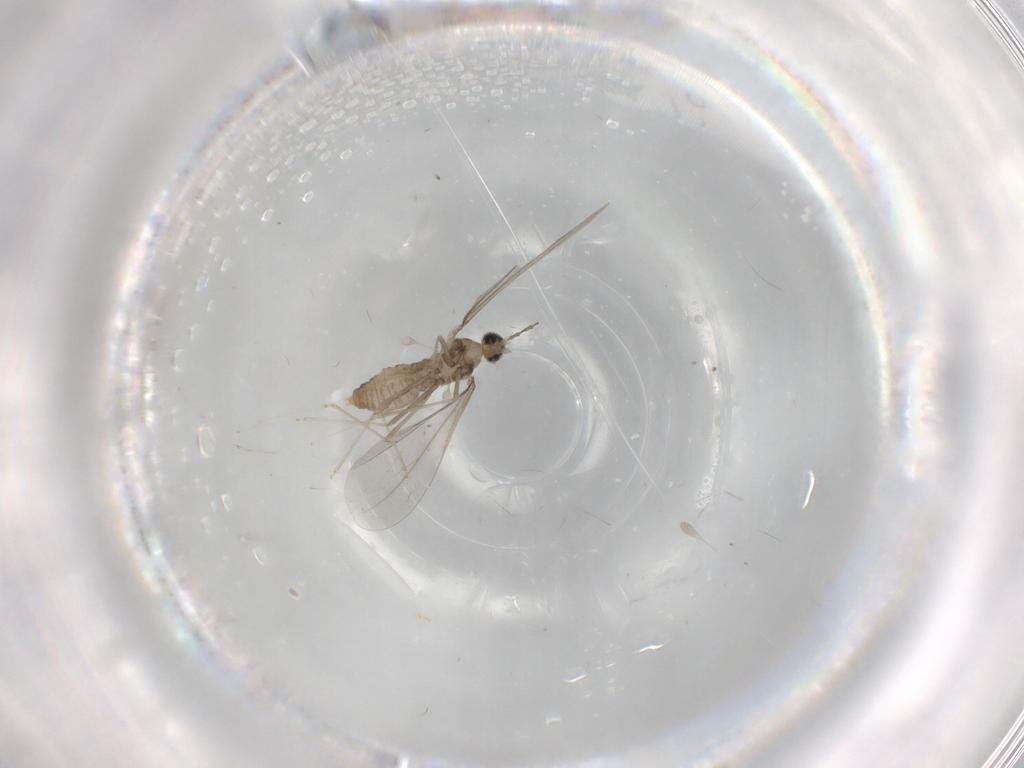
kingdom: Animalia
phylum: Arthropoda
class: Insecta
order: Diptera
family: Cecidomyiidae
